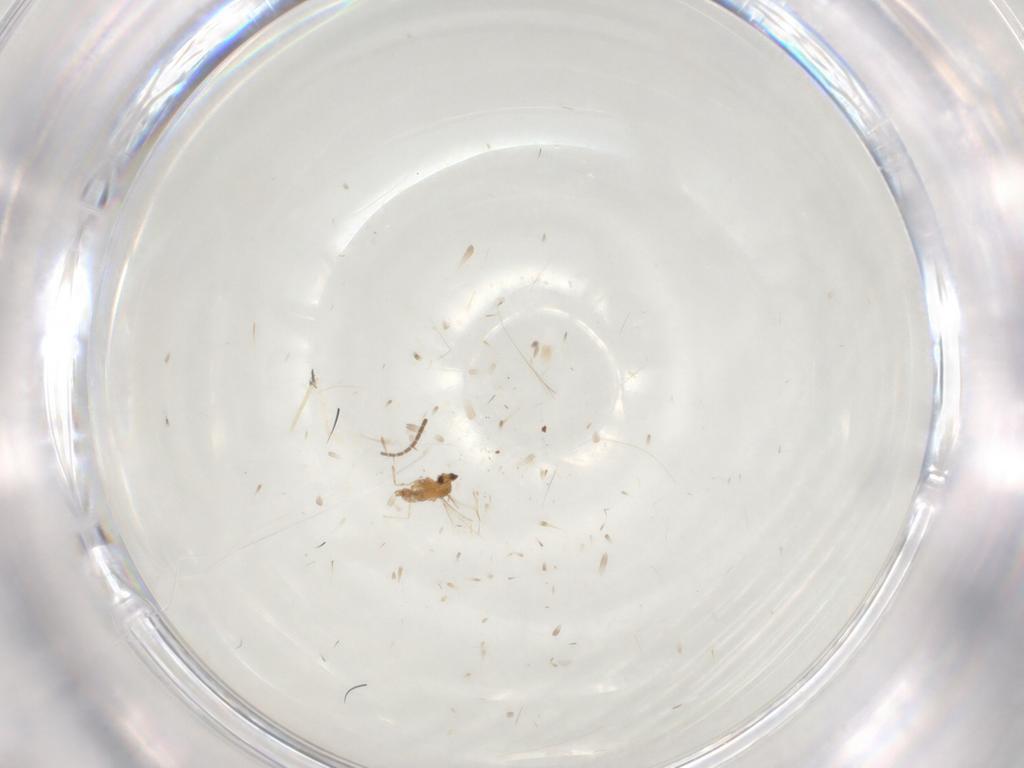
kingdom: Animalia
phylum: Arthropoda
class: Insecta
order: Diptera
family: Sciaridae
